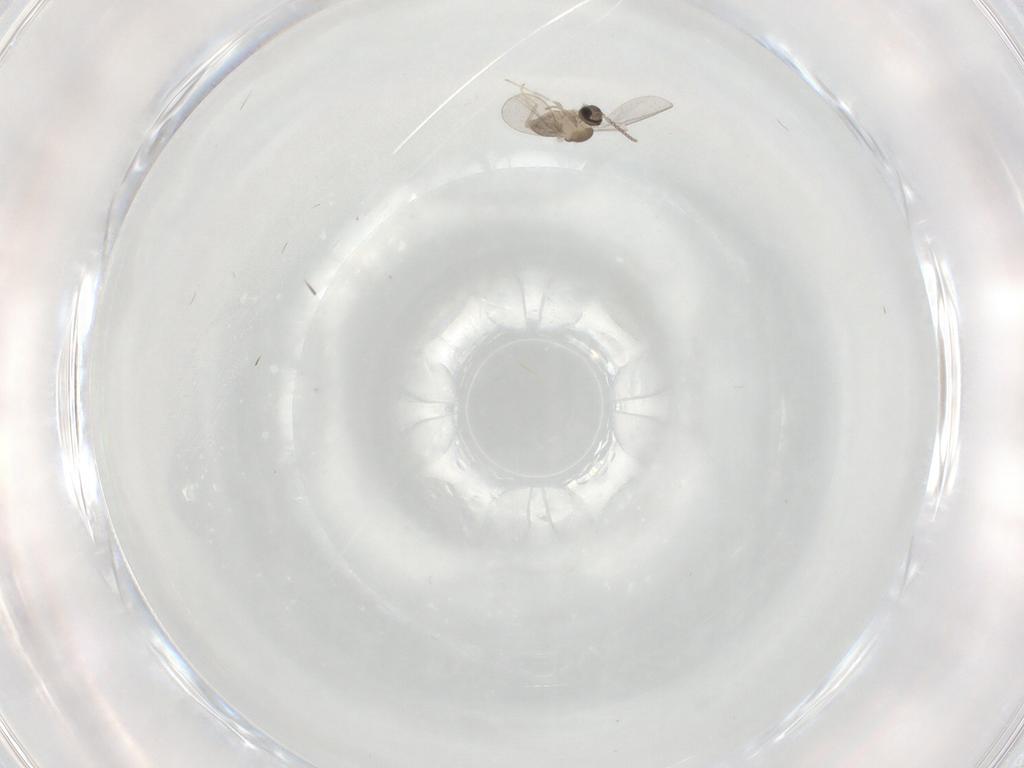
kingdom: Animalia
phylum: Arthropoda
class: Insecta
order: Diptera
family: Cecidomyiidae
